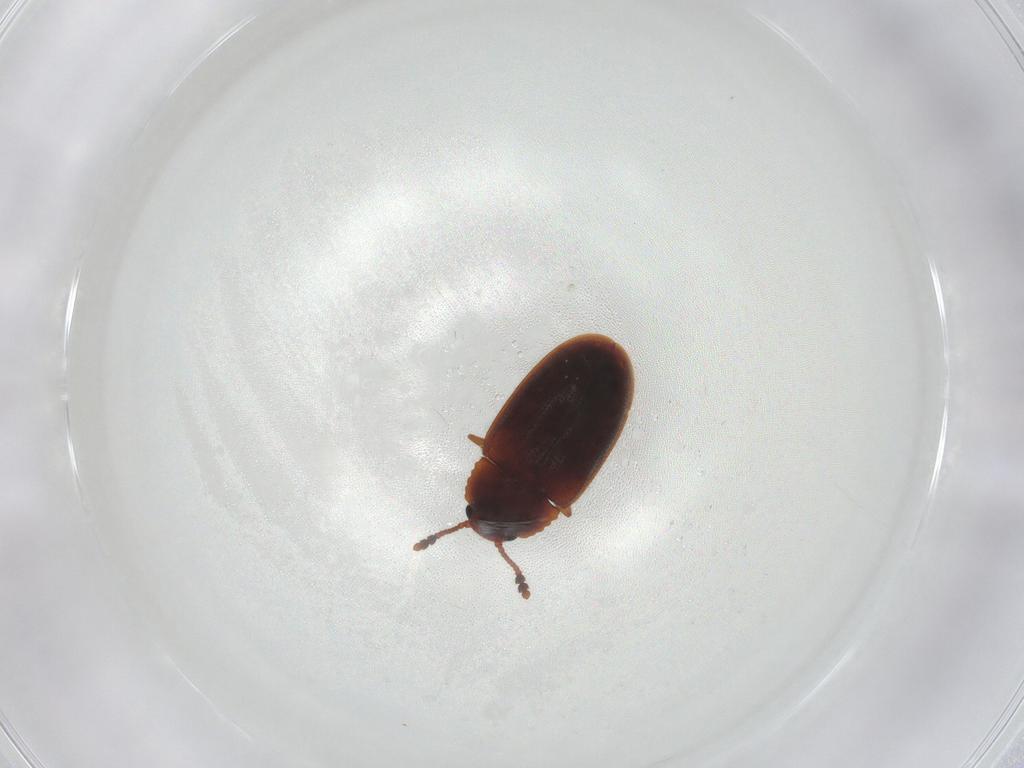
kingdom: Animalia
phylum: Arthropoda
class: Insecta
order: Coleoptera
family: Erotylidae
